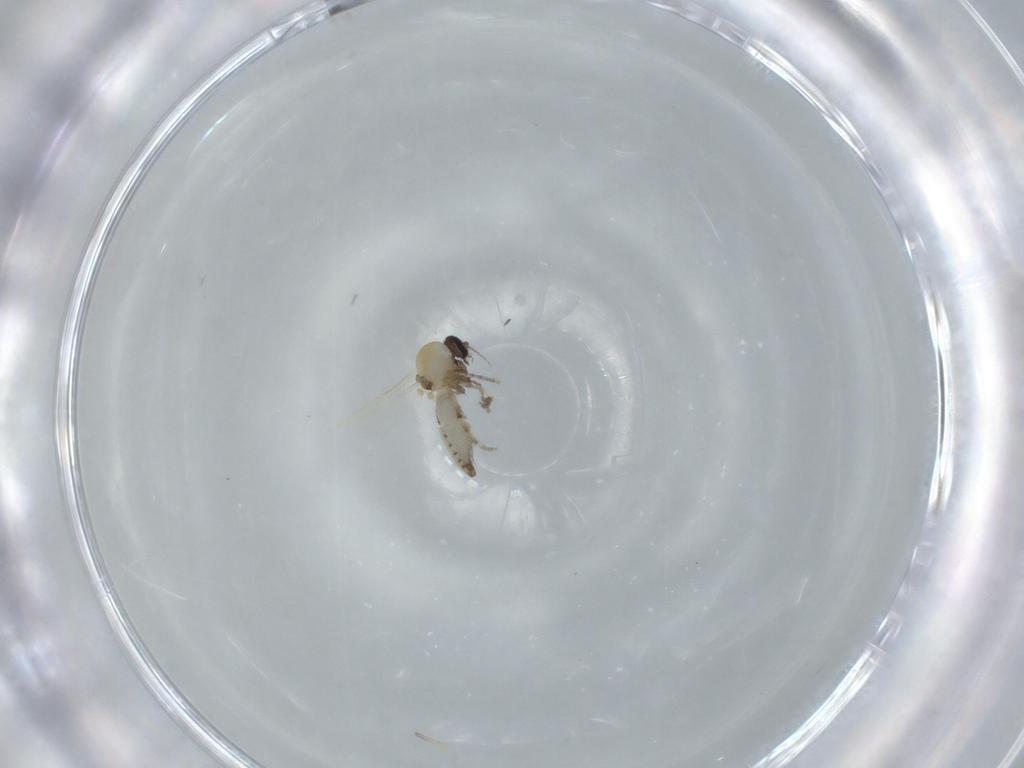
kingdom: Animalia
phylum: Arthropoda
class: Insecta
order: Diptera
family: Ceratopogonidae
